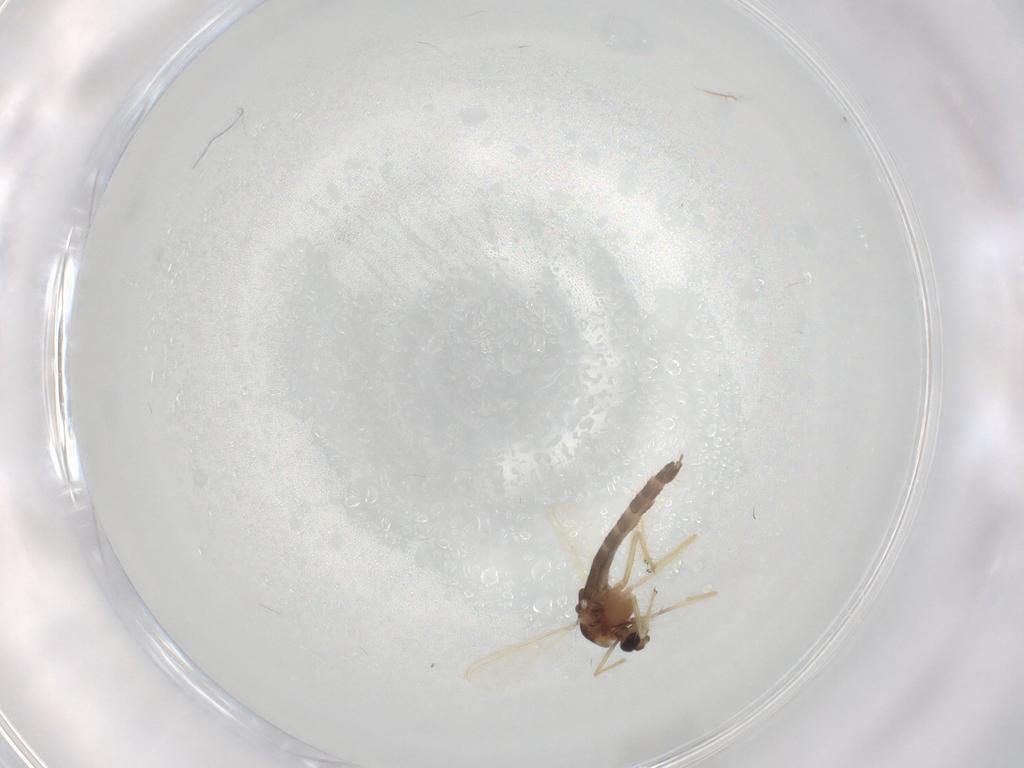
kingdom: Animalia
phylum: Arthropoda
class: Insecta
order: Diptera
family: Chironomidae
